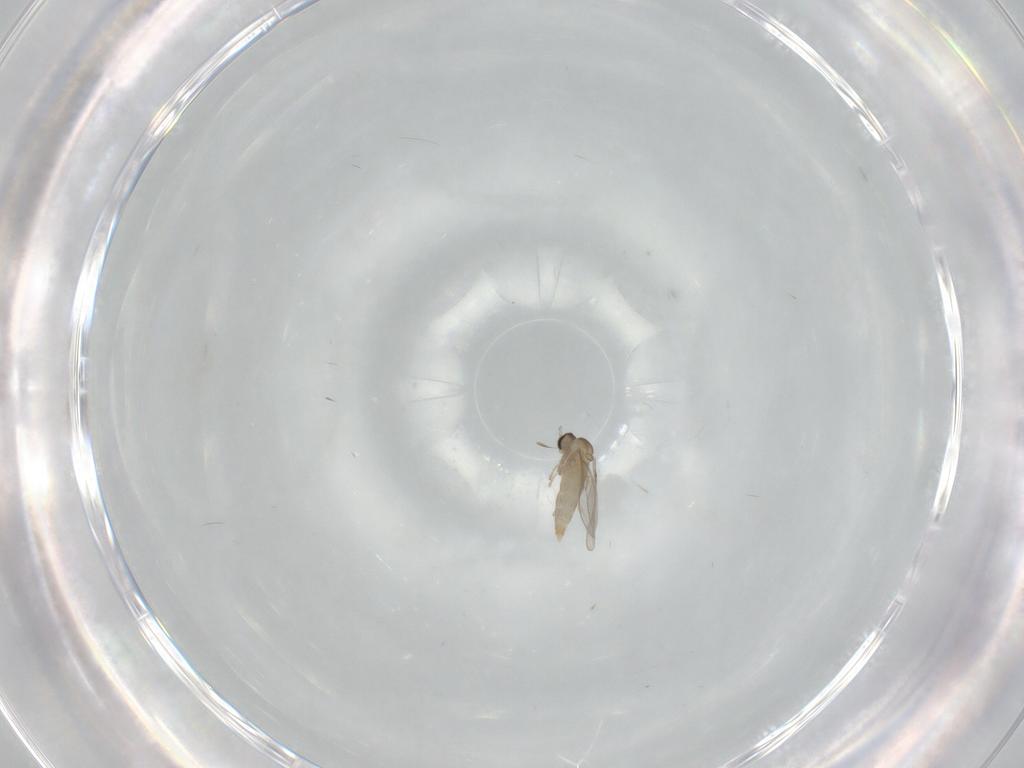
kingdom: Animalia
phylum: Arthropoda
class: Insecta
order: Diptera
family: Cecidomyiidae
